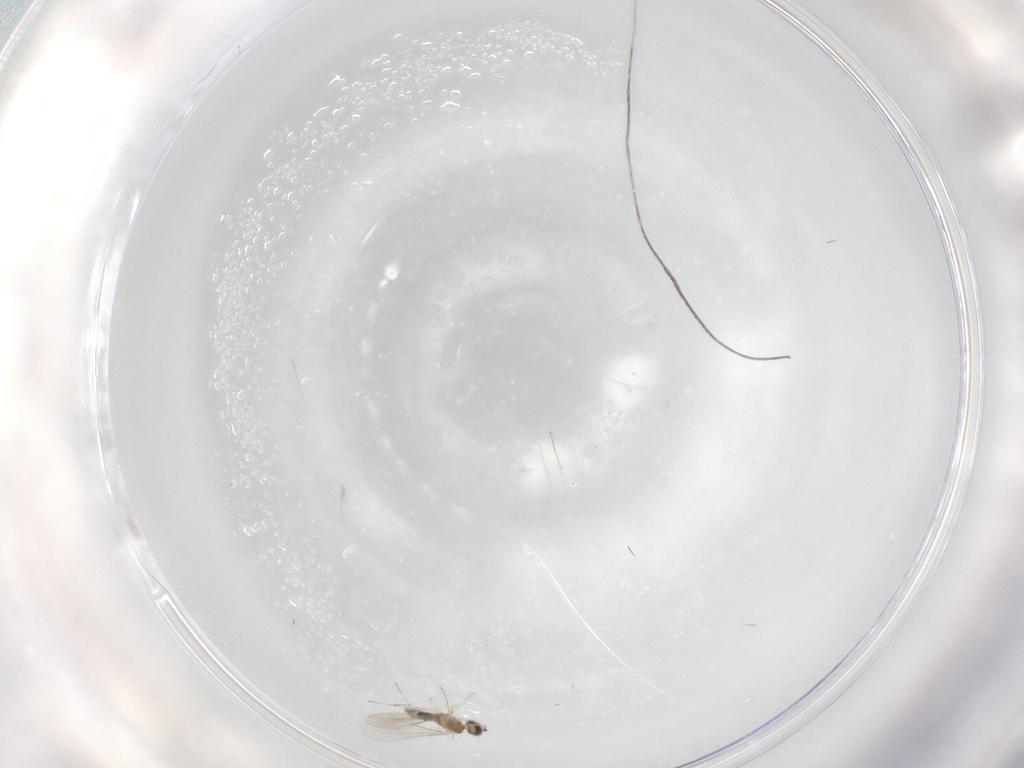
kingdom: Animalia
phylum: Arthropoda
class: Insecta
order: Diptera
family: Cecidomyiidae
